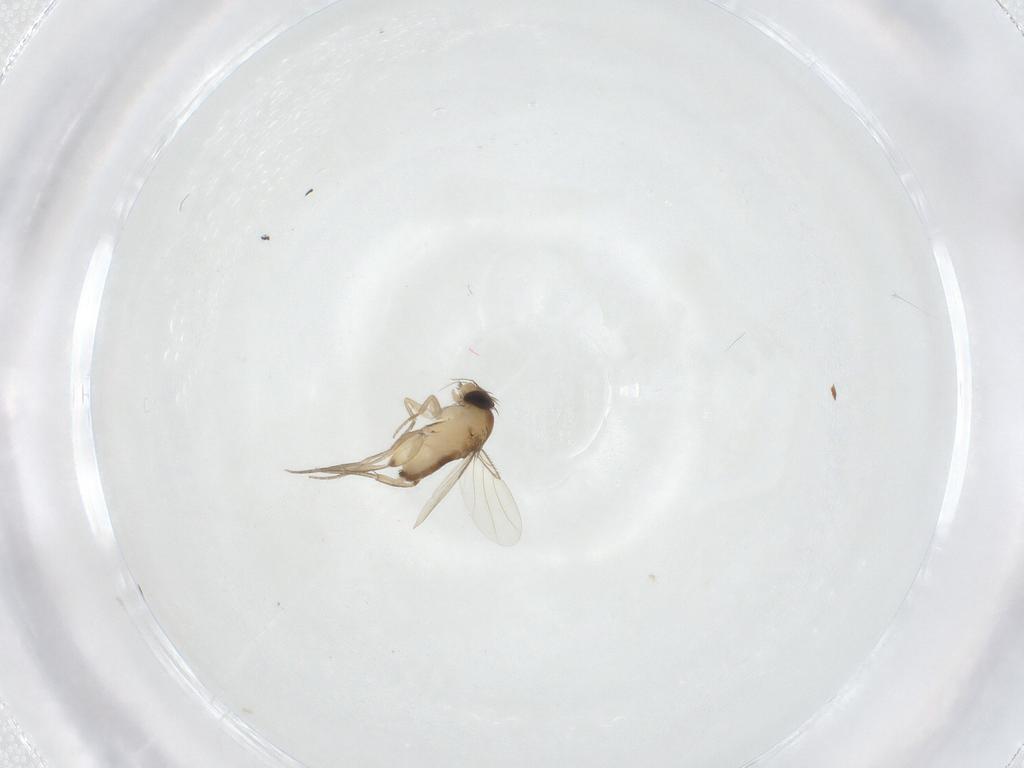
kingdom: Animalia
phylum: Arthropoda
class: Insecta
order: Diptera
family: Phoridae
